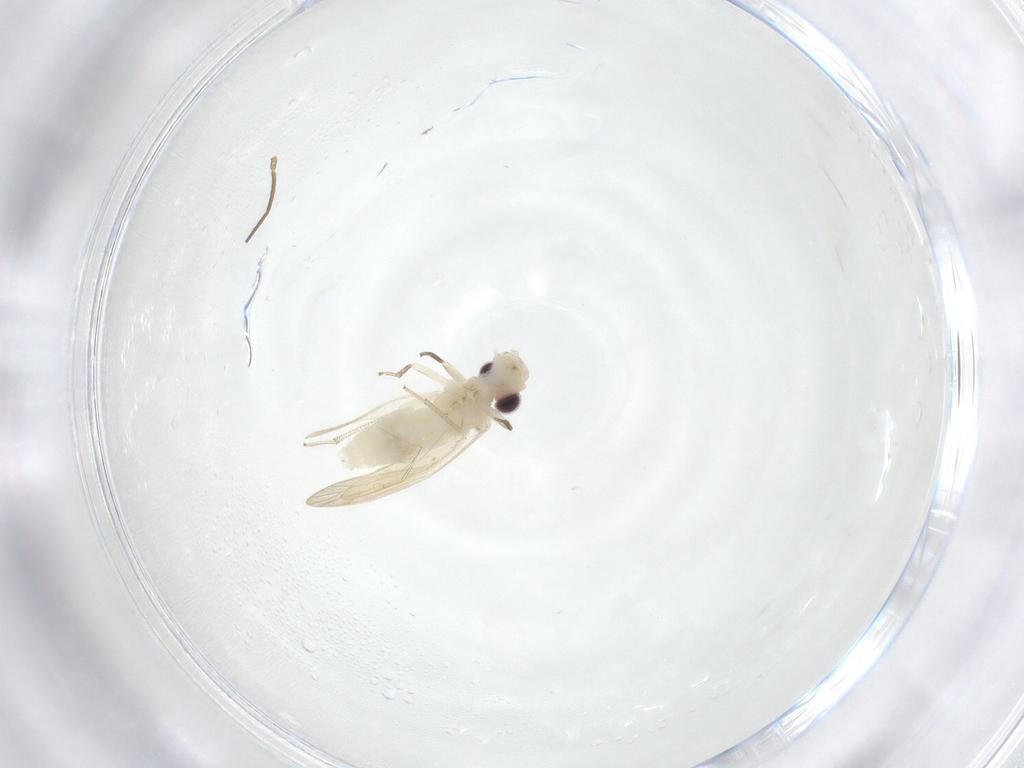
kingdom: Animalia
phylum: Arthropoda
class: Insecta
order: Psocodea
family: Caeciliusidae
